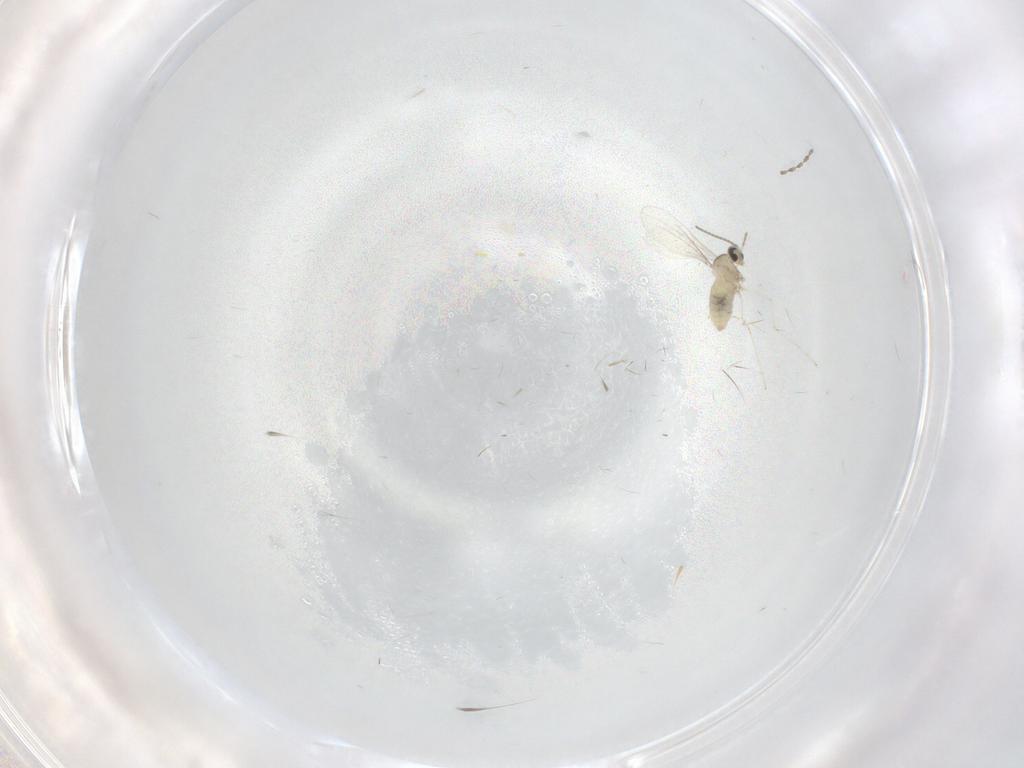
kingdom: Animalia
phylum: Arthropoda
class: Insecta
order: Diptera
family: Cecidomyiidae
